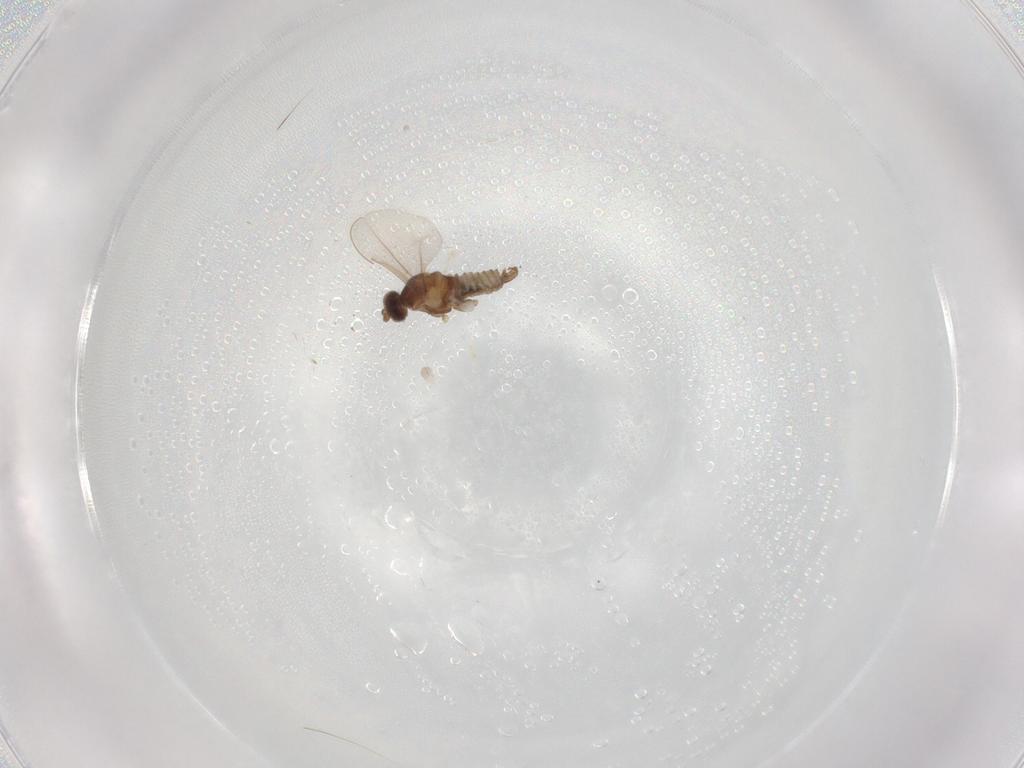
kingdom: Animalia
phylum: Arthropoda
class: Insecta
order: Diptera
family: Cecidomyiidae
